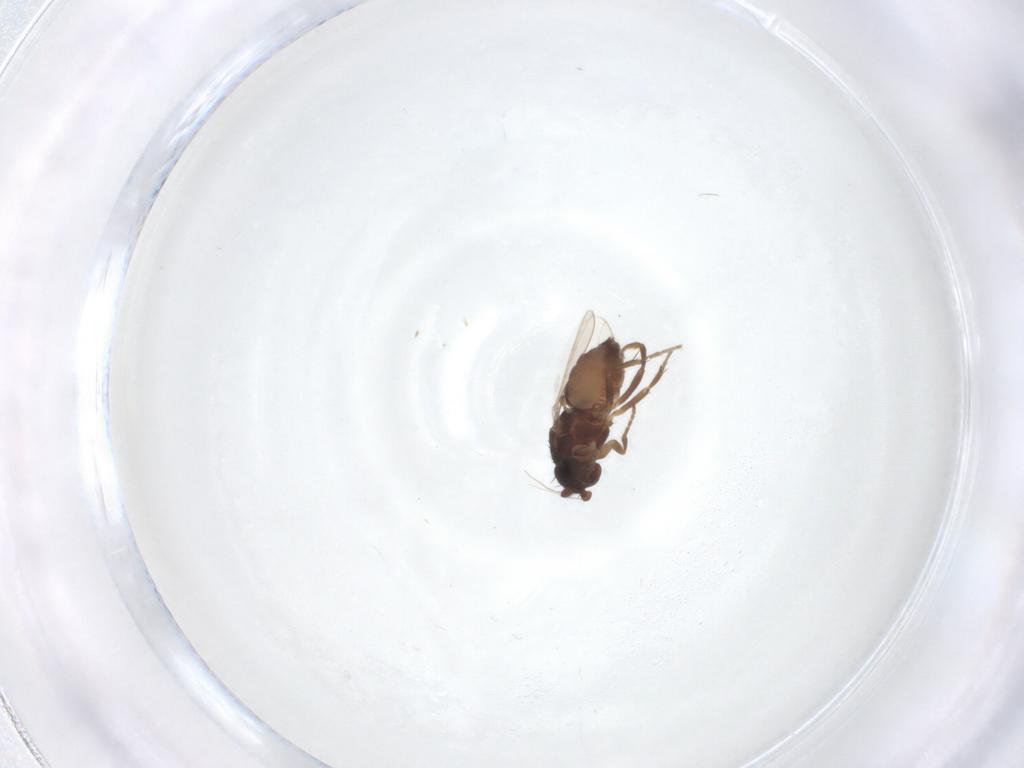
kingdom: Animalia
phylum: Arthropoda
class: Insecta
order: Diptera
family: Sphaeroceridae
